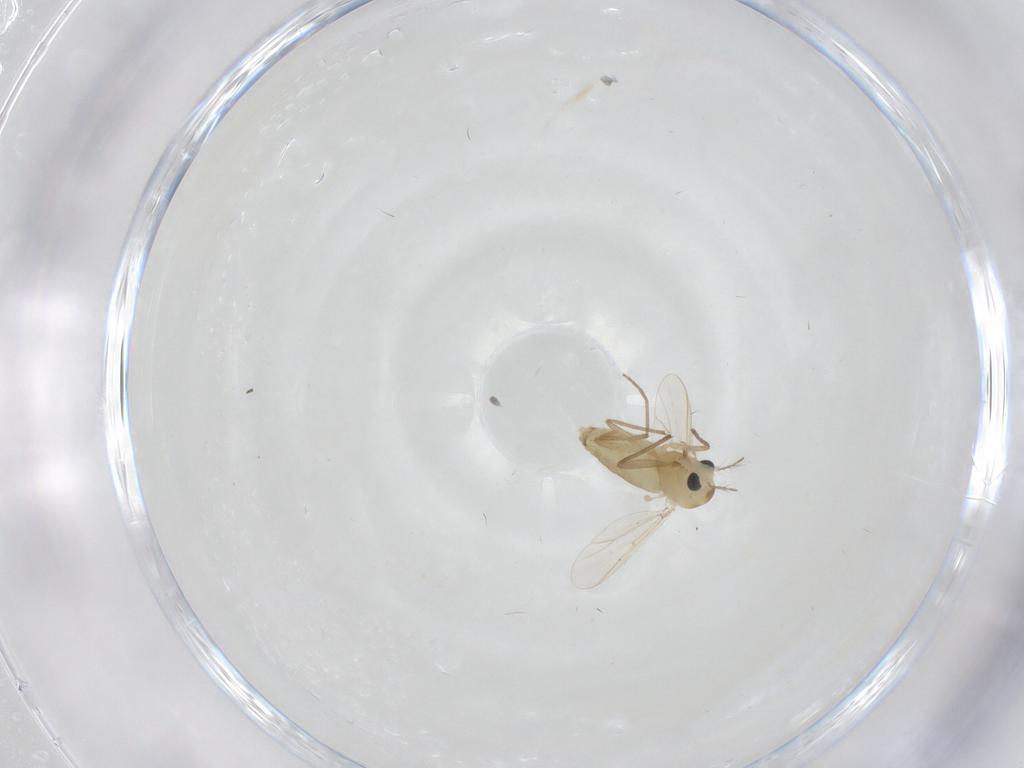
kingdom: Animalia
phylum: Arthropoda
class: Insecta
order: Diptera
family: Chironomidae
